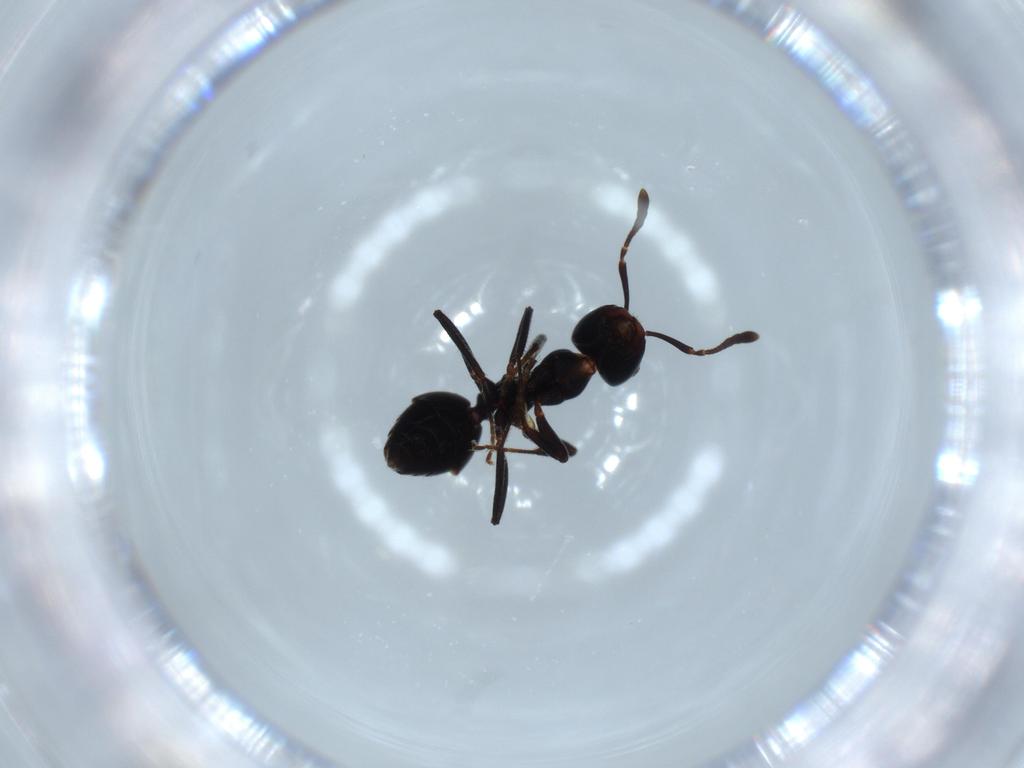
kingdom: Animalia
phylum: Arthropoda
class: Insecta
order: Hymenoptera
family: Formicidae
